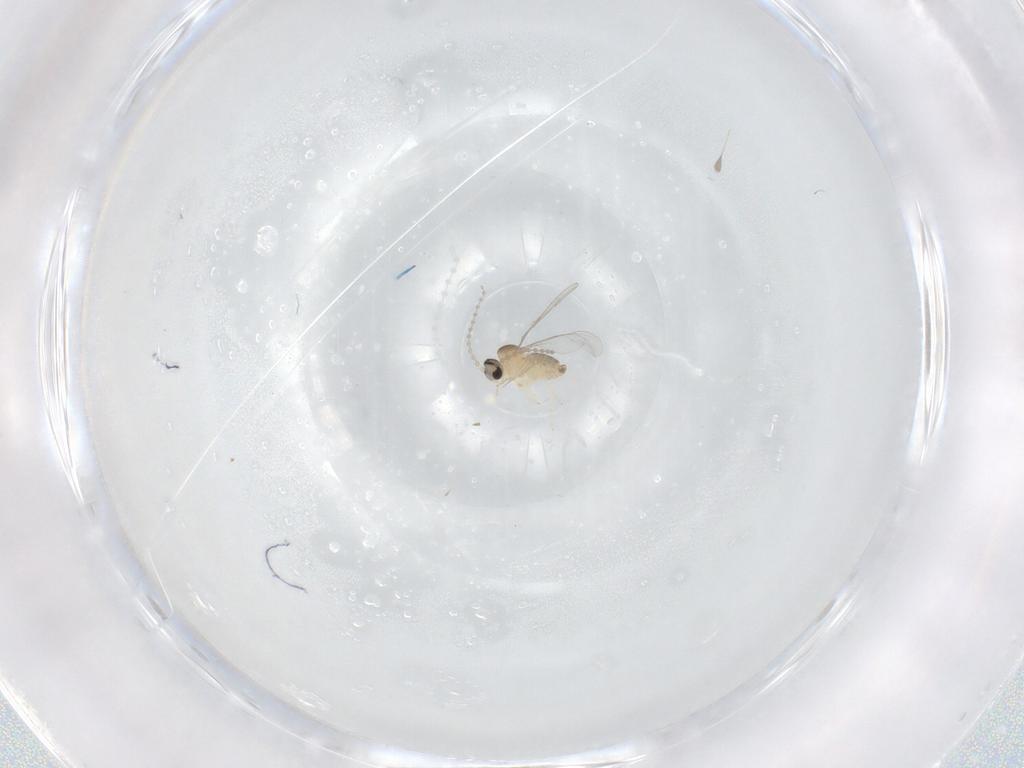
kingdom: Animalia
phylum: Arthropoda
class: Insecta
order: Diptera
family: Cecidomyiidae
